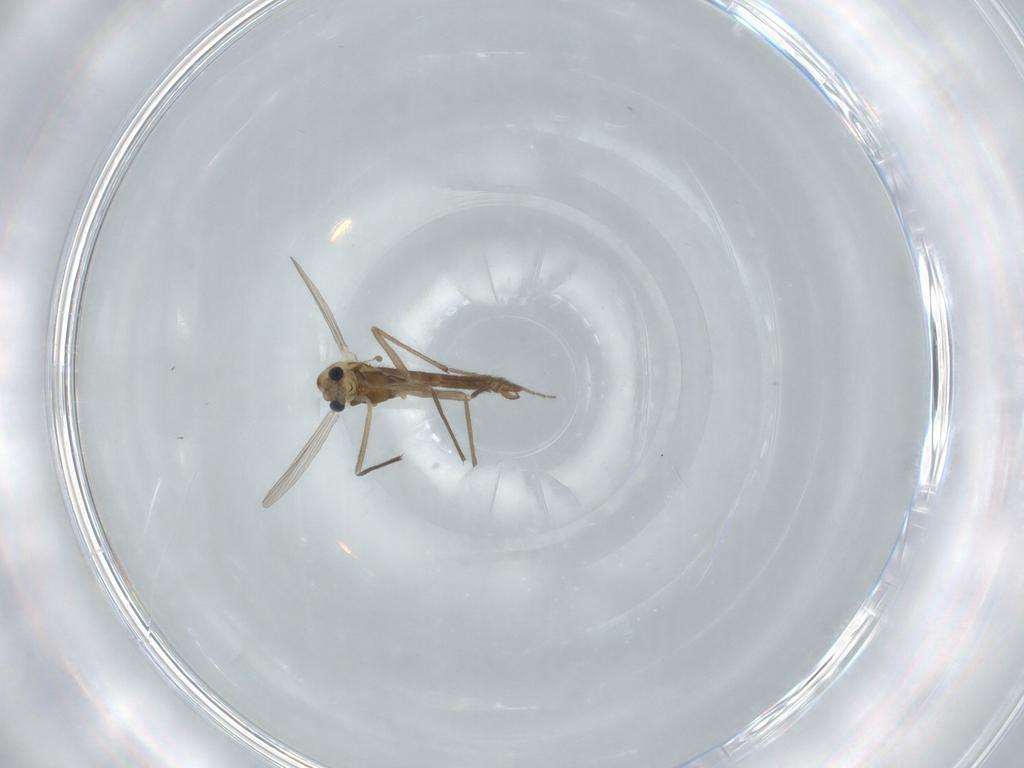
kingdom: Animalia
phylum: Arthropoda
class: Insecta
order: Diptera
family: Chironomidae
